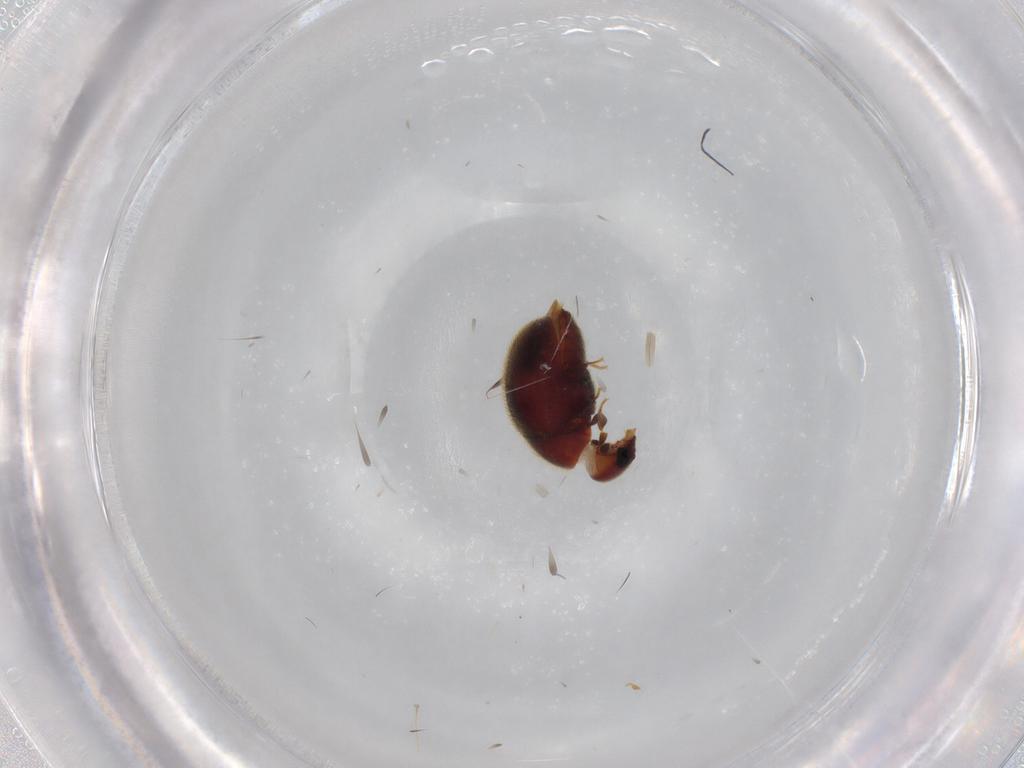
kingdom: Animalia
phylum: Arthropoda
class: Insecta
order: Coleoptera
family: Ptinidae
